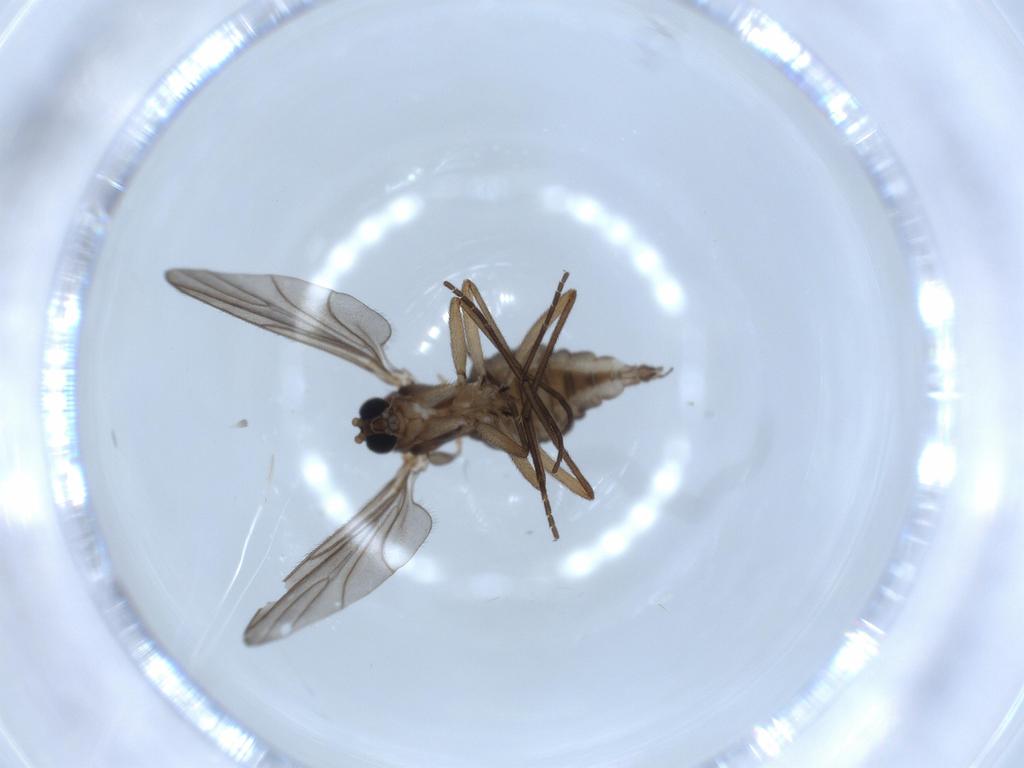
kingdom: Animalia
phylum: Arthropoda
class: Insecta
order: Diptera
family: Sciaridae
